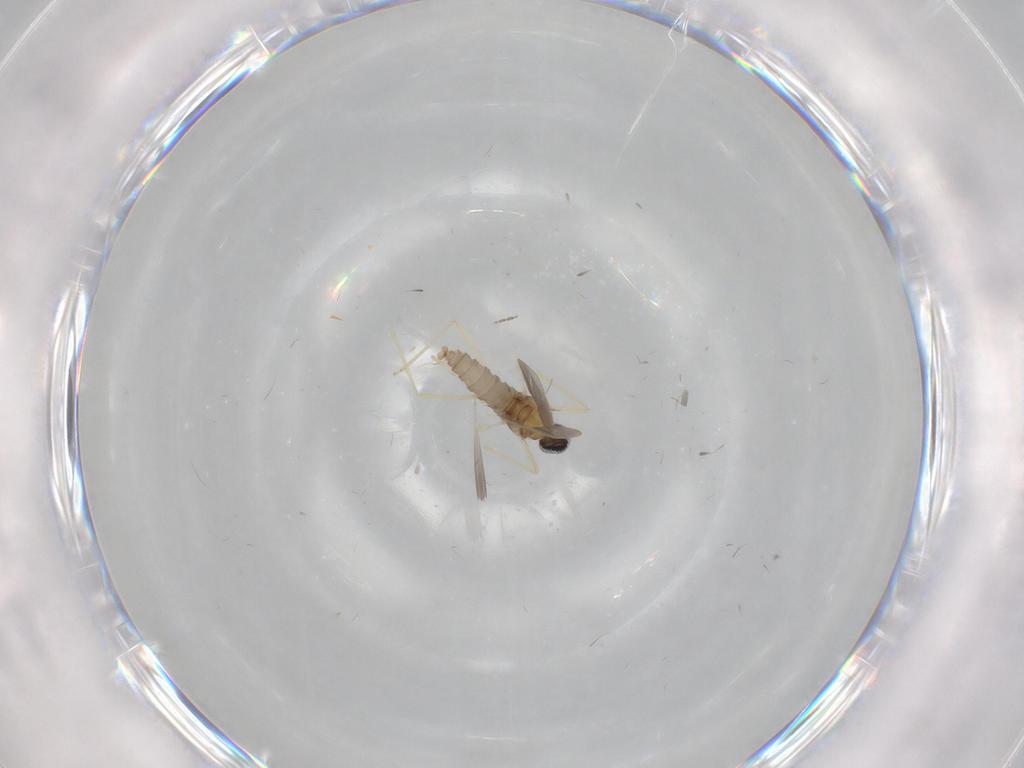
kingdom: Animalia
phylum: Arthropoda
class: Insecta
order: Diptera
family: Cecidomyiidae
